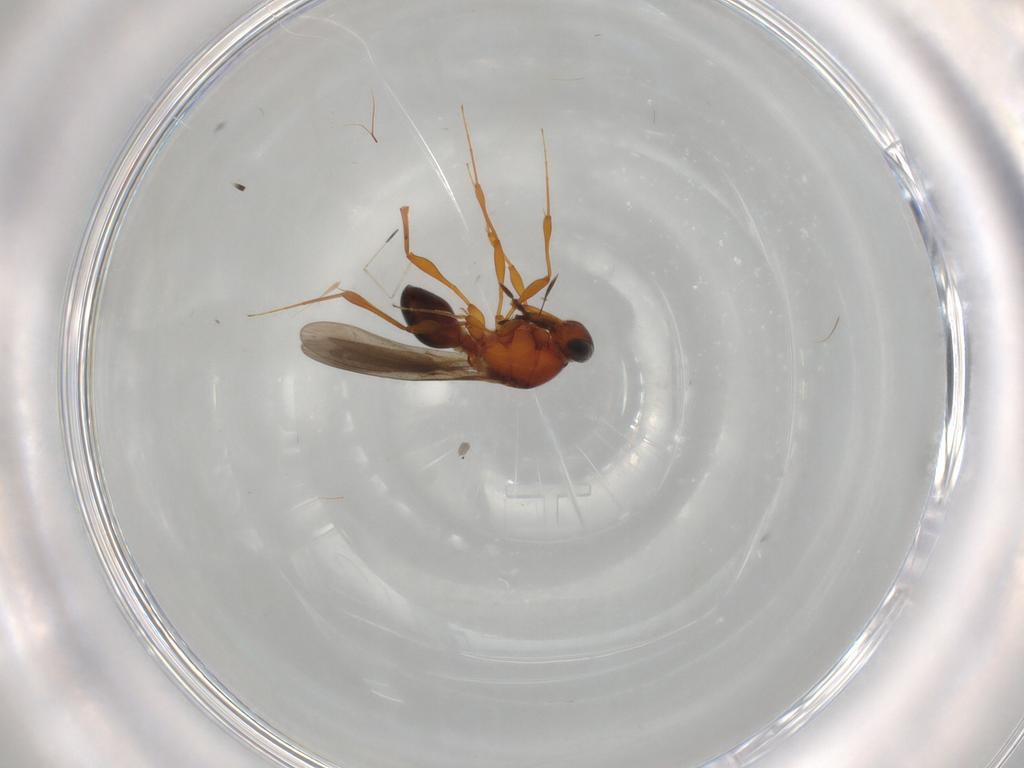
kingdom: Animalia
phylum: Arthropoda
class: Insecta
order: Hymenoptera
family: Platygastridae
